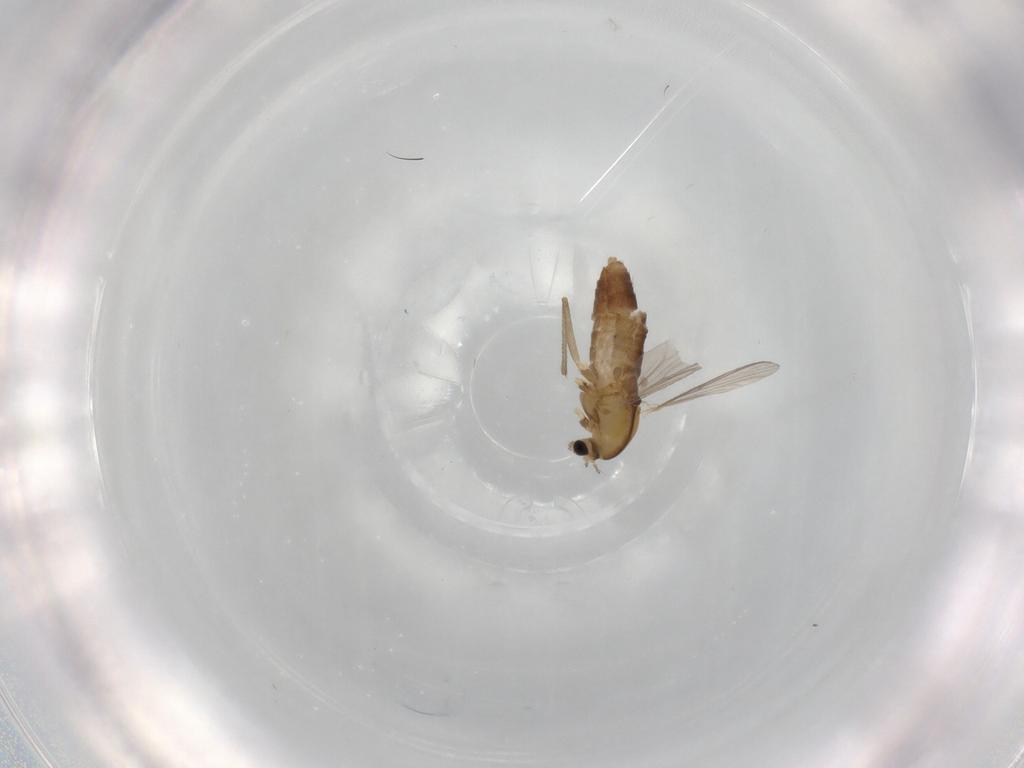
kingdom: Animalia
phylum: Arthropoda
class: Insecta
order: Diptera
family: Chironomidae
